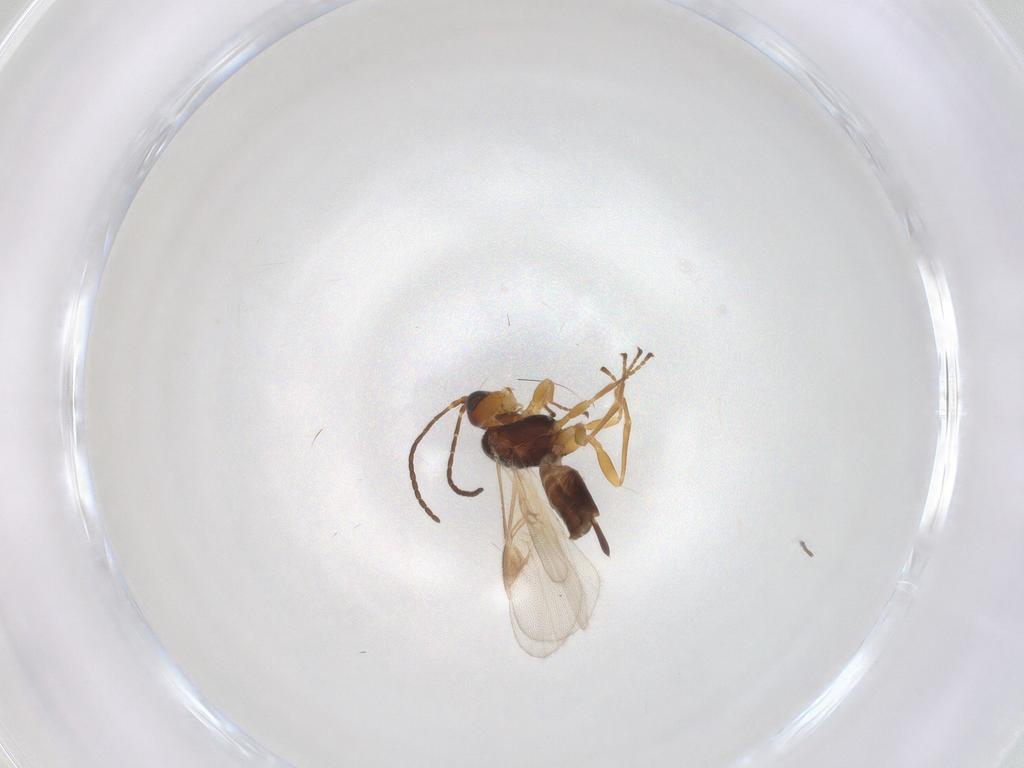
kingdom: Animalia
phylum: Arthropoda
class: Insecta
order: Hymenoptera
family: Braconidae
